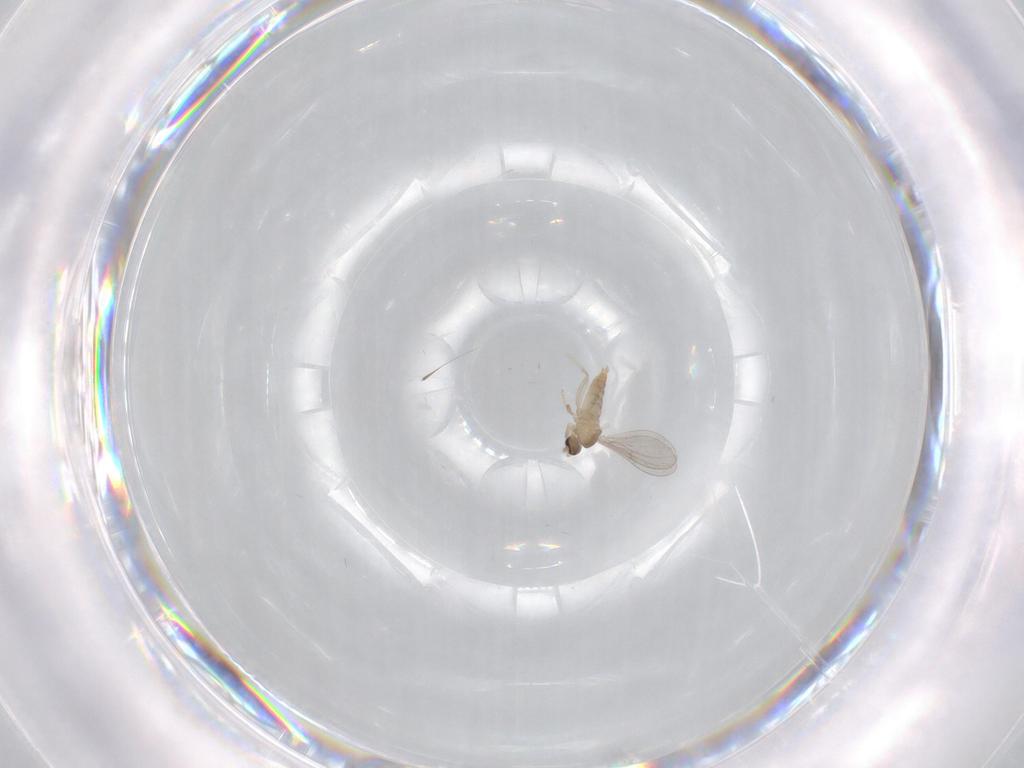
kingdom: Animalia
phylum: Arthropoda
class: Insecta
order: Diptera
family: Cecidomyiidae
